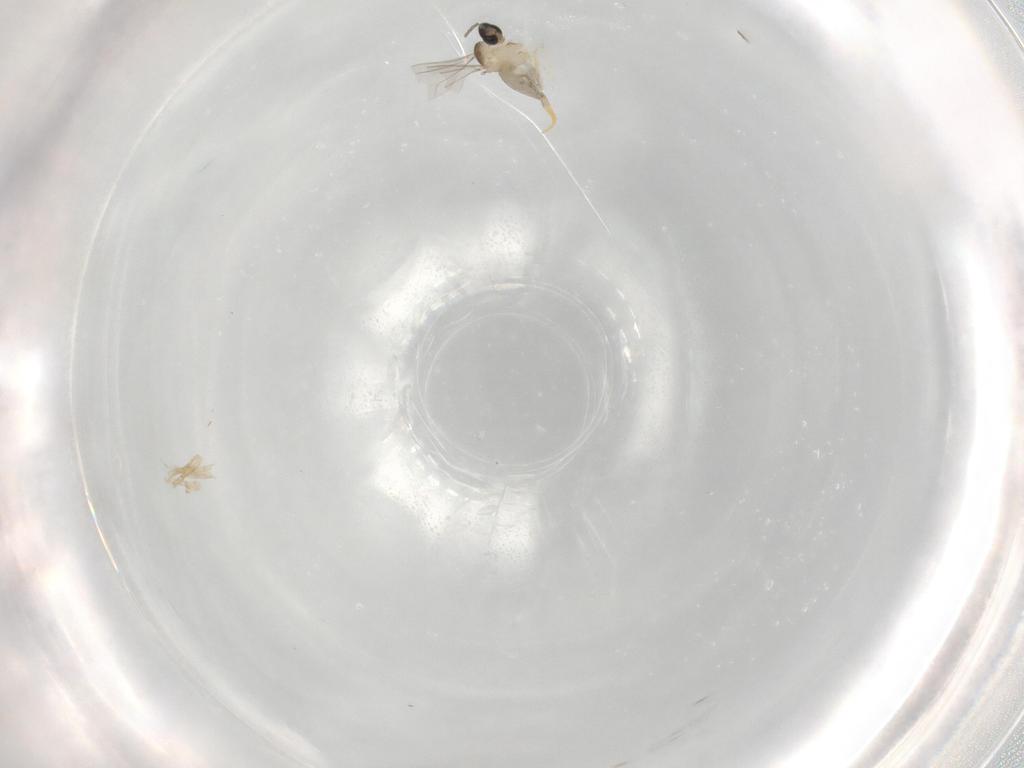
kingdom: Animalia
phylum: Arthropoda
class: Insecta
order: Diptera
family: Cecidomyiidae
